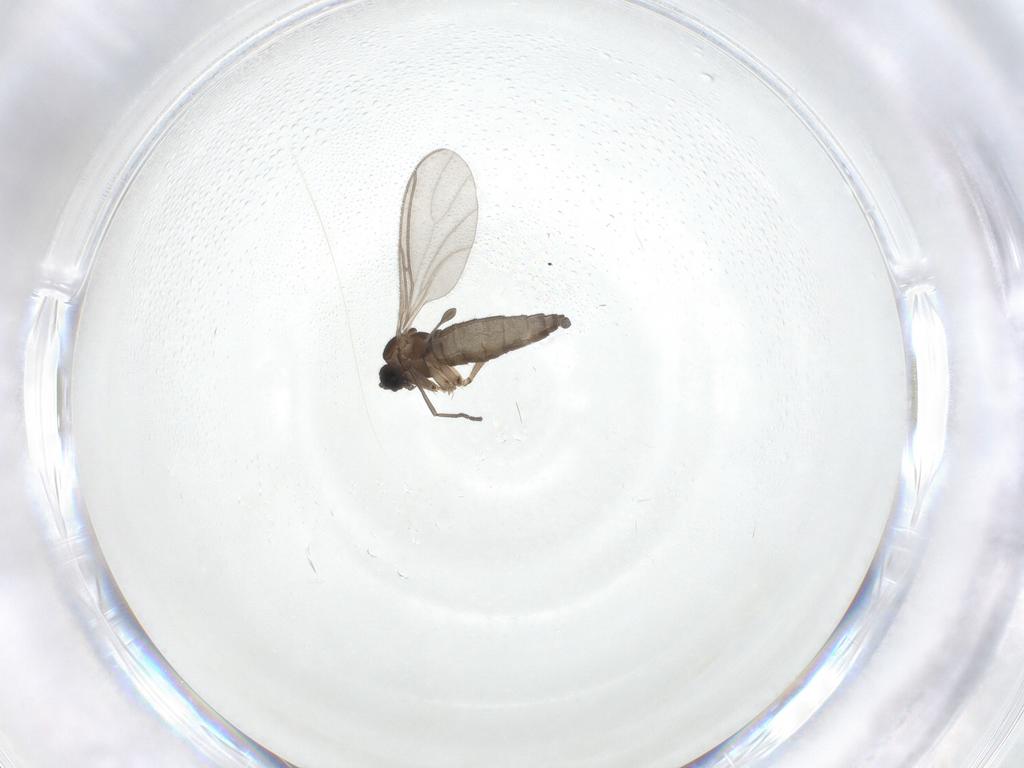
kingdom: Animalia
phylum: Arthropoda
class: Insecta
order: Diptera
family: Sciaridae
